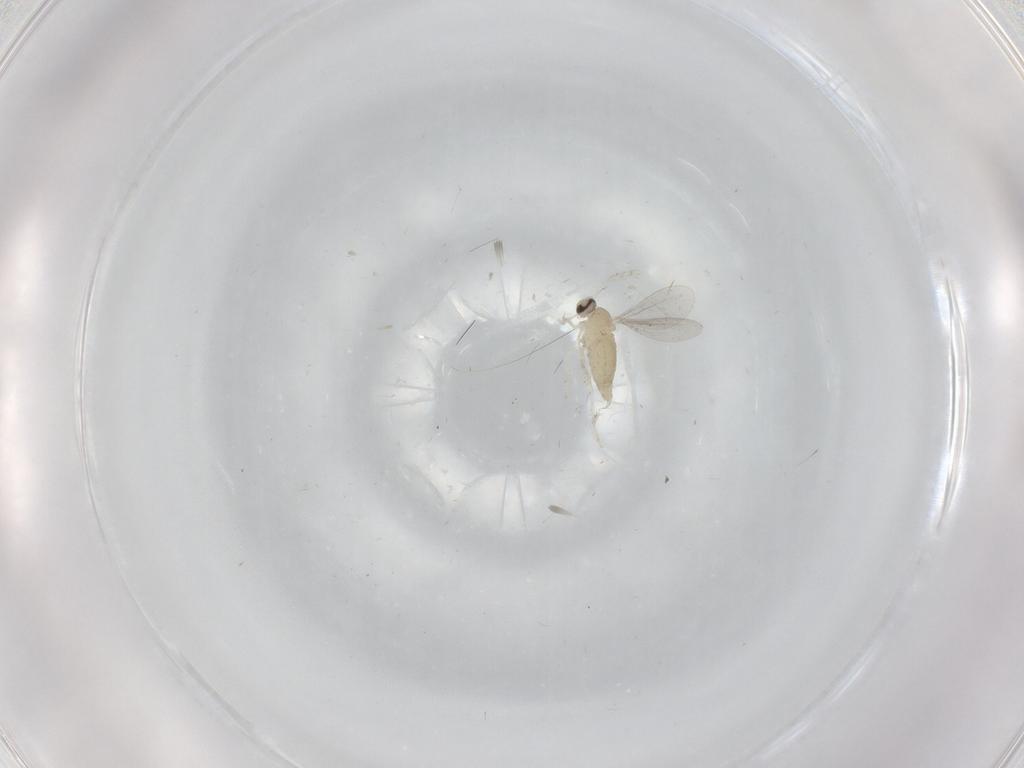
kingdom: Animalia
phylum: Arthropoda
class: Insecta
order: Diptera
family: Cecidomyiidae
